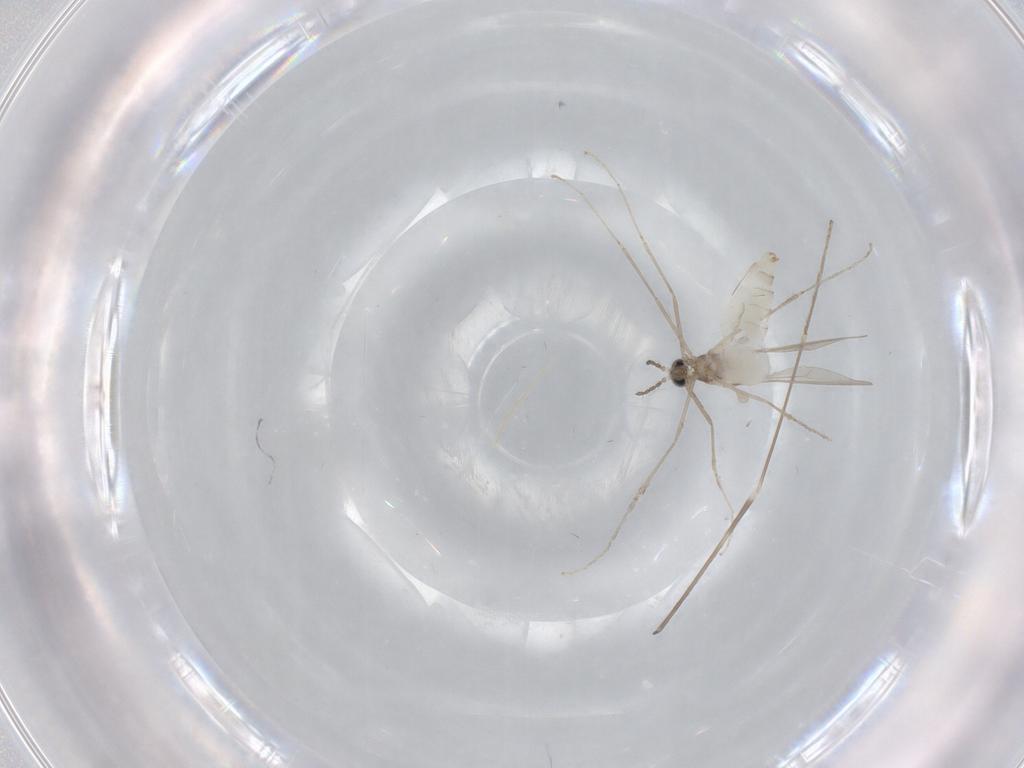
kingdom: Animalia
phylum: Arthropoda
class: Insecta
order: Diptera
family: Cecidomyiidae
